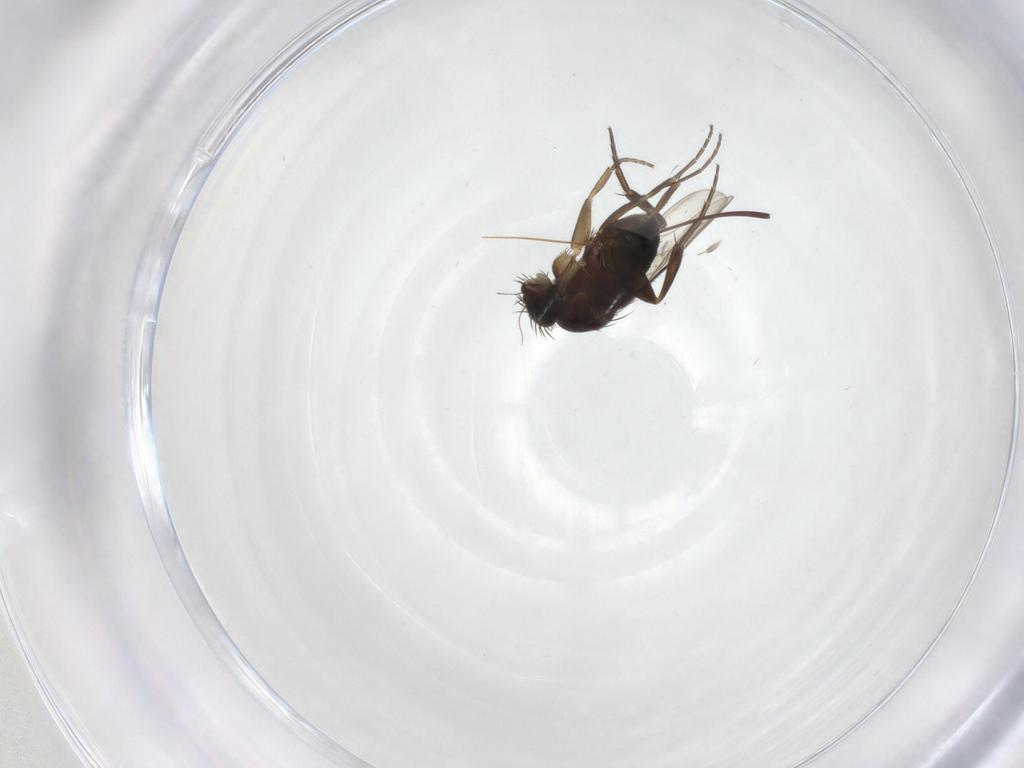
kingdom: Animalia
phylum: Arthropoda
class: Insecta
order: Diptera
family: Phoridae
